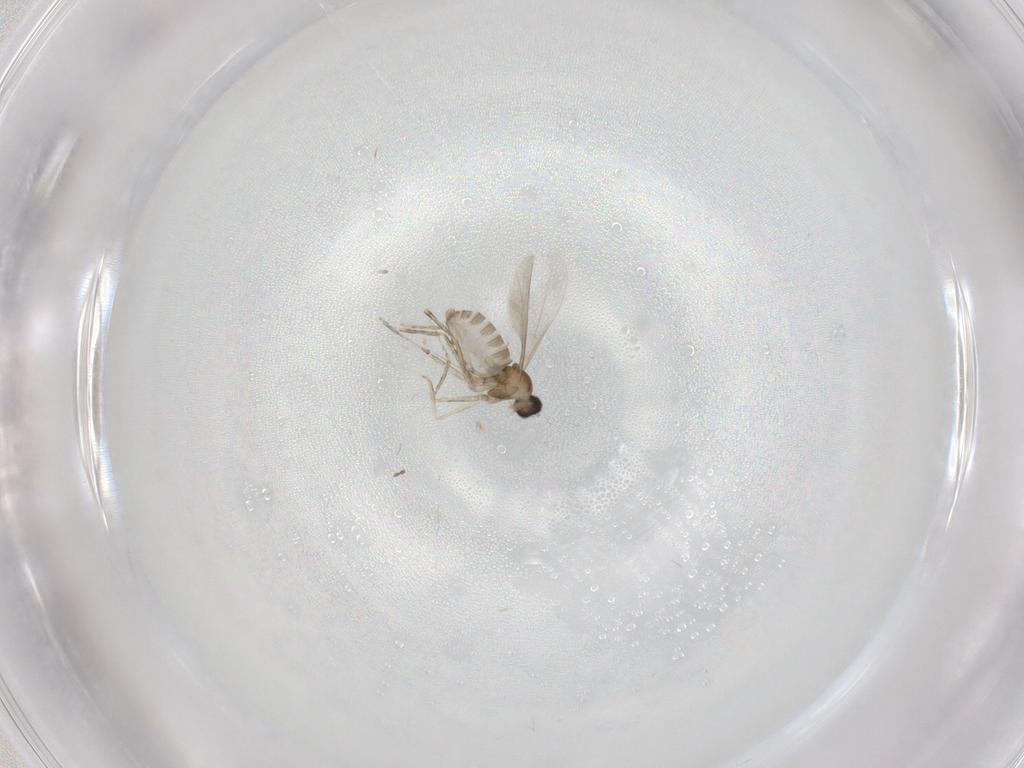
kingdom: Animalia
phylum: Arthropoda
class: Insecta
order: Diptera
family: Cecidomyiidae
